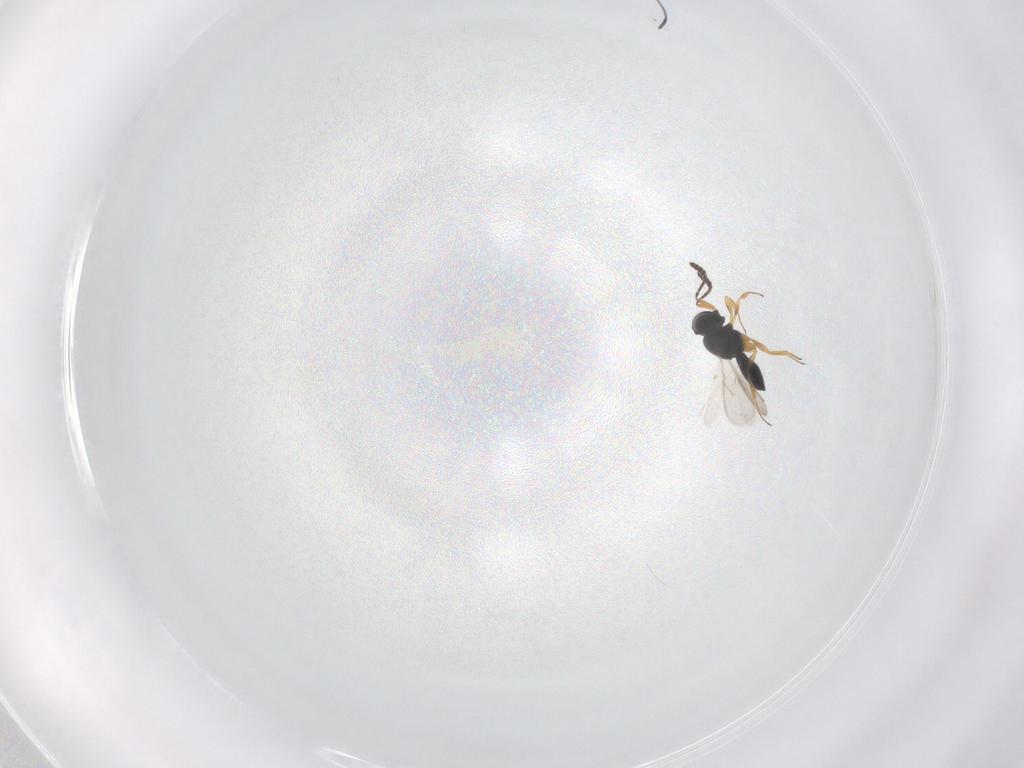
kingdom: Animalia
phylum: Arthropoda
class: Insecta
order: Hymenoptera
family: Scelionidae
